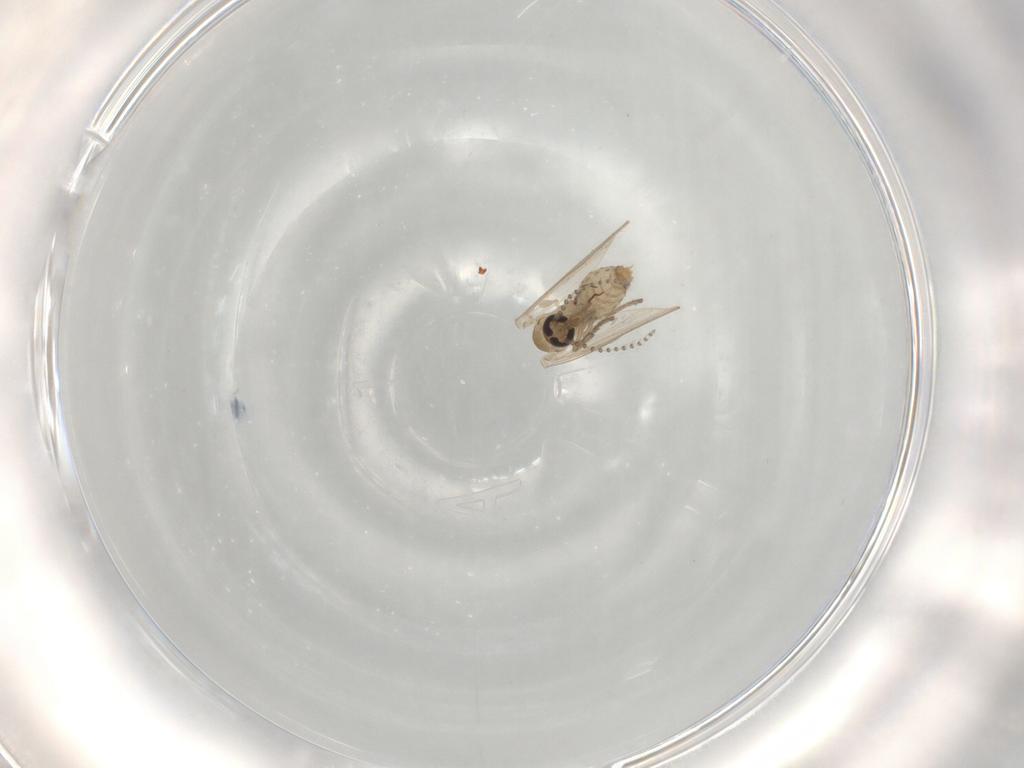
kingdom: Animalia
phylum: Arthropoda
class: Insecta
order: Diptera
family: Psychodidae
